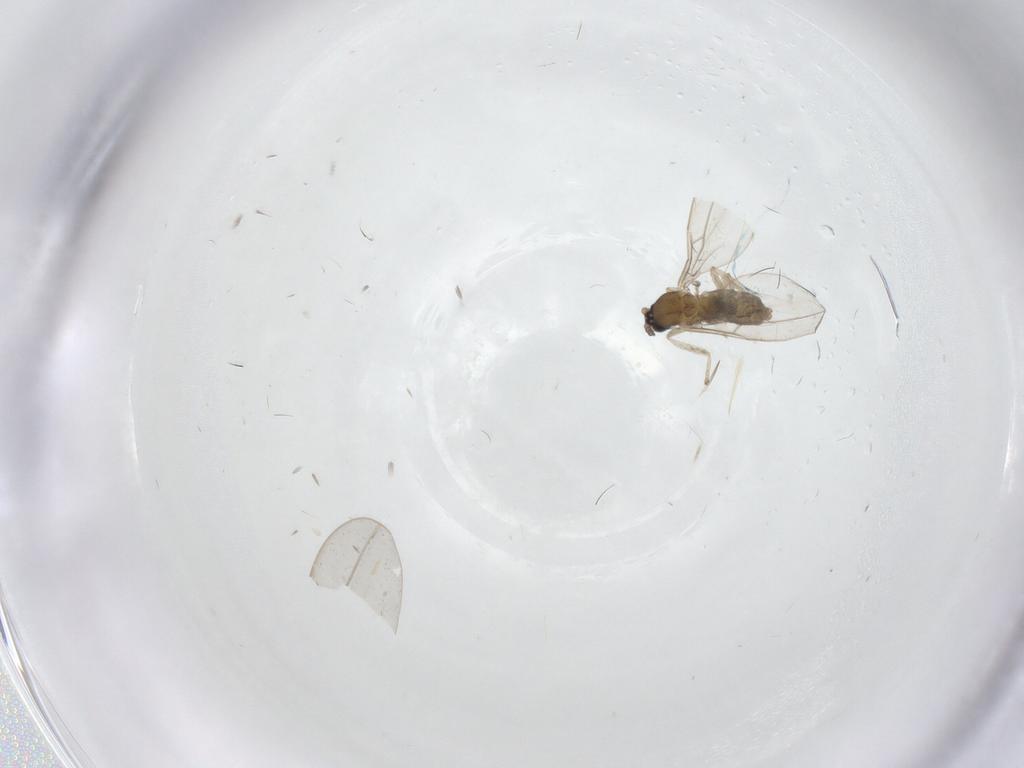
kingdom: Animalia
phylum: Arthropoda
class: Insecta
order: Diptera
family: Cecidomyiidae
